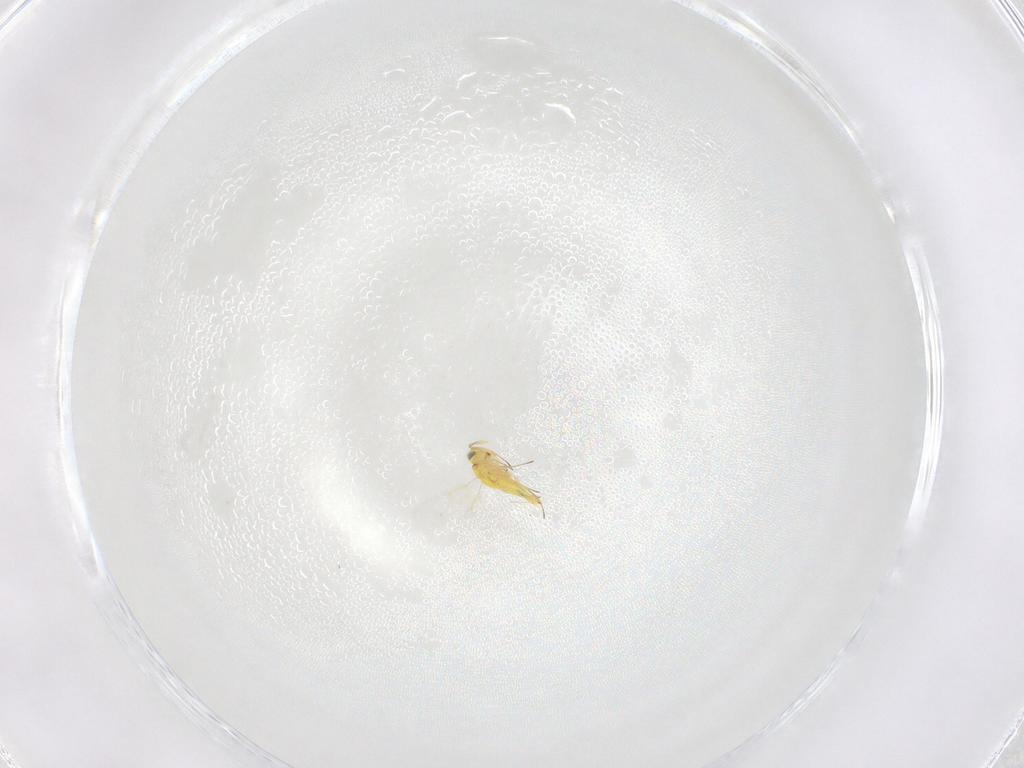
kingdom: Animalia
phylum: Arthropoda
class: Insecta
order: Hymenoptera
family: Aphelinidae
